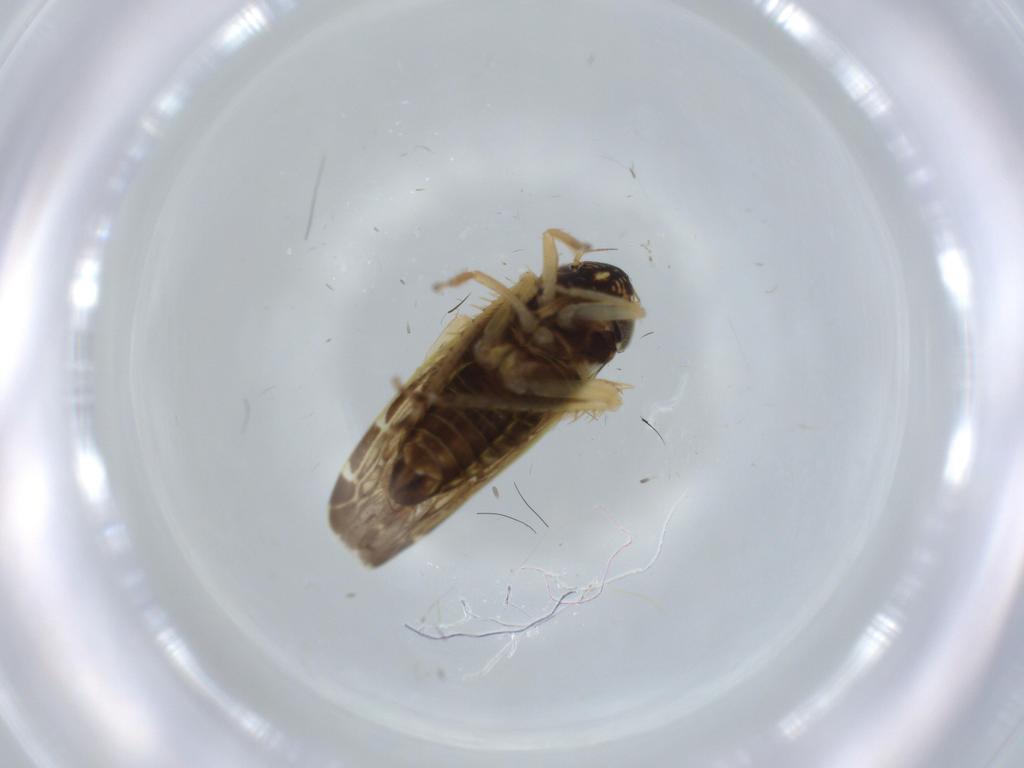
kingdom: Animalia
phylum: Arthropoda
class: Insecta
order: Hemiptera
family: Cicadellidae
